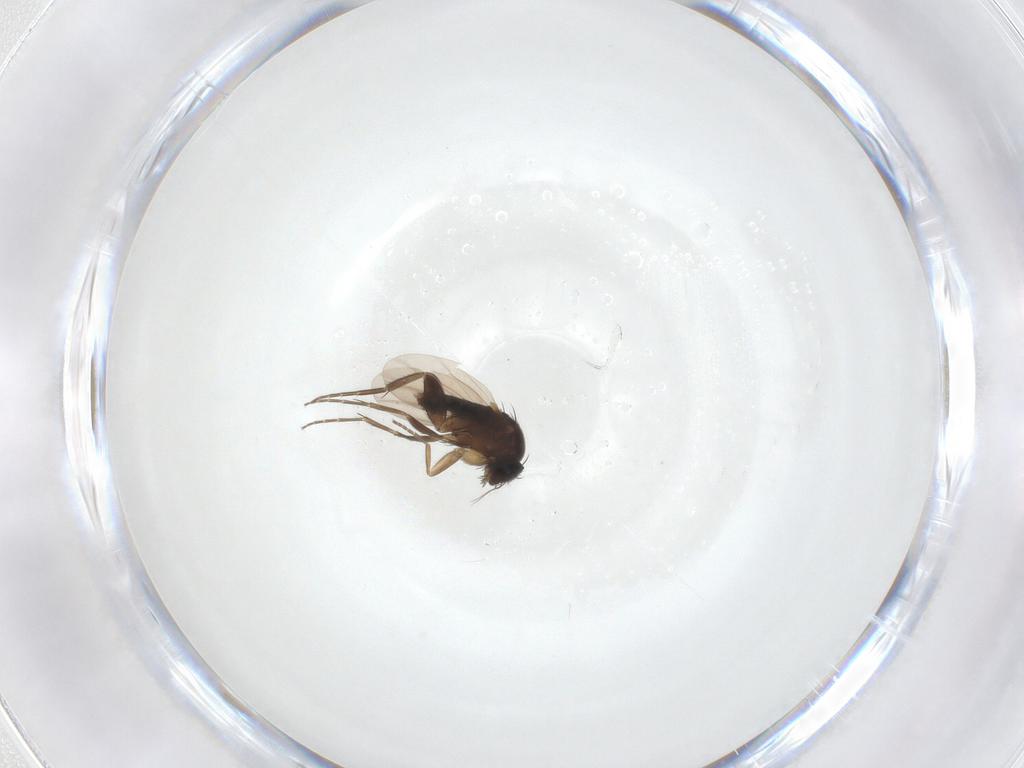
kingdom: Animalia
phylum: Arthropoda
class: Insecta
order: Diptera
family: Phoridae
